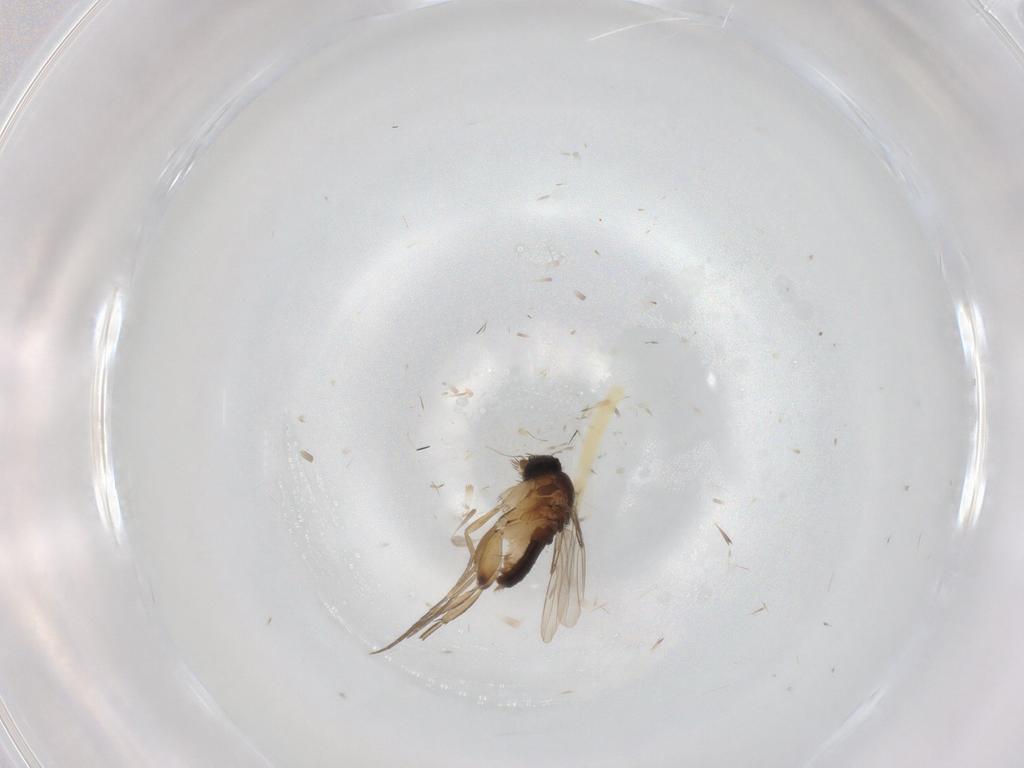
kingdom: Animalia
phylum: Arthropoda
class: Insecta
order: Diptera
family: Sarcophagidae
